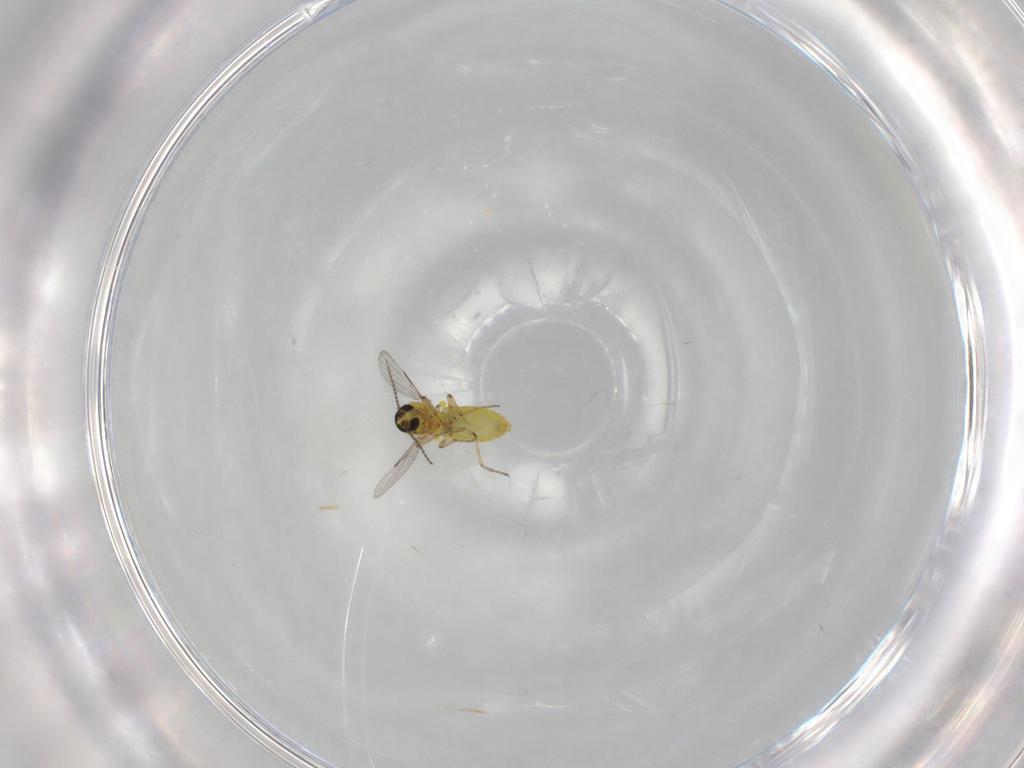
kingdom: Animalia
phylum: Arthropoda
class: Insecta
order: Diptera
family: Ceratopogonidae
